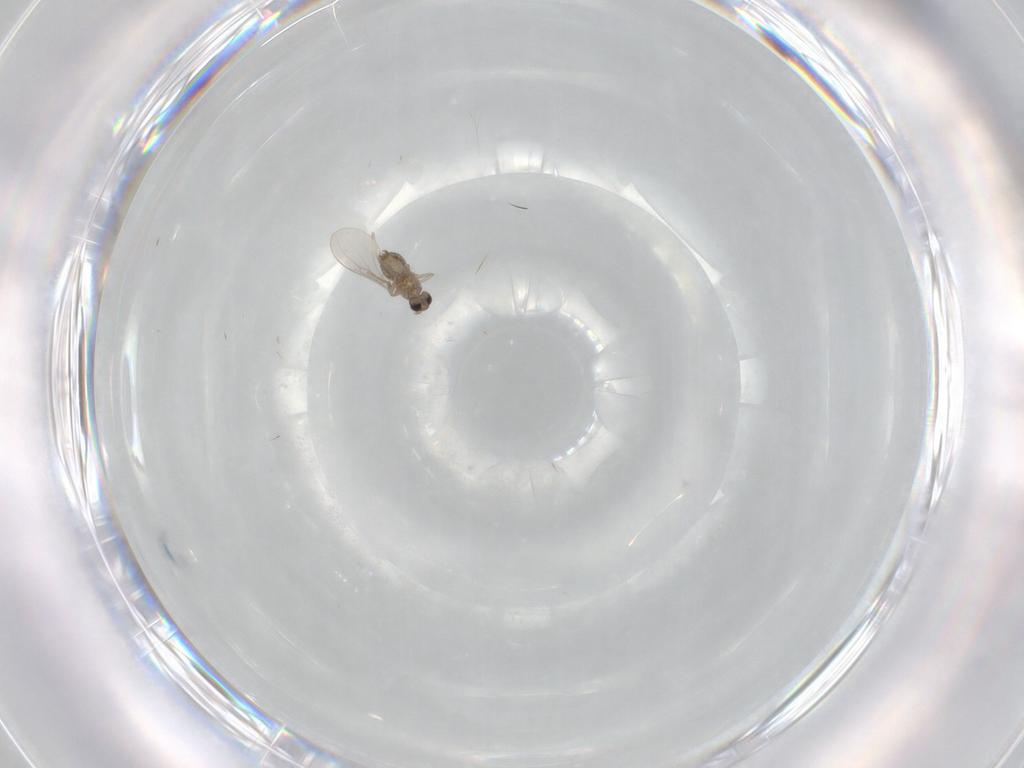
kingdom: Animalia
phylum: Arthropoda
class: Insecta
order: Diptera
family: Cecidomyiidae
